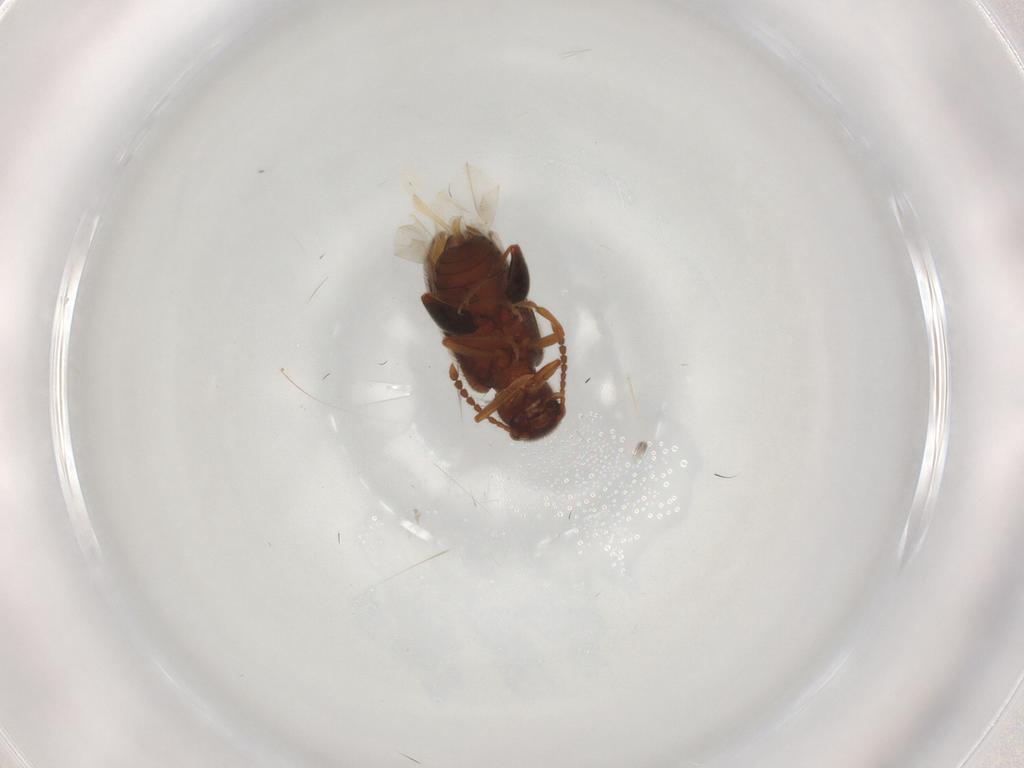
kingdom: Animalia
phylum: Arthropoda
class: Insecta
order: Coleoptera
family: Aderidae
